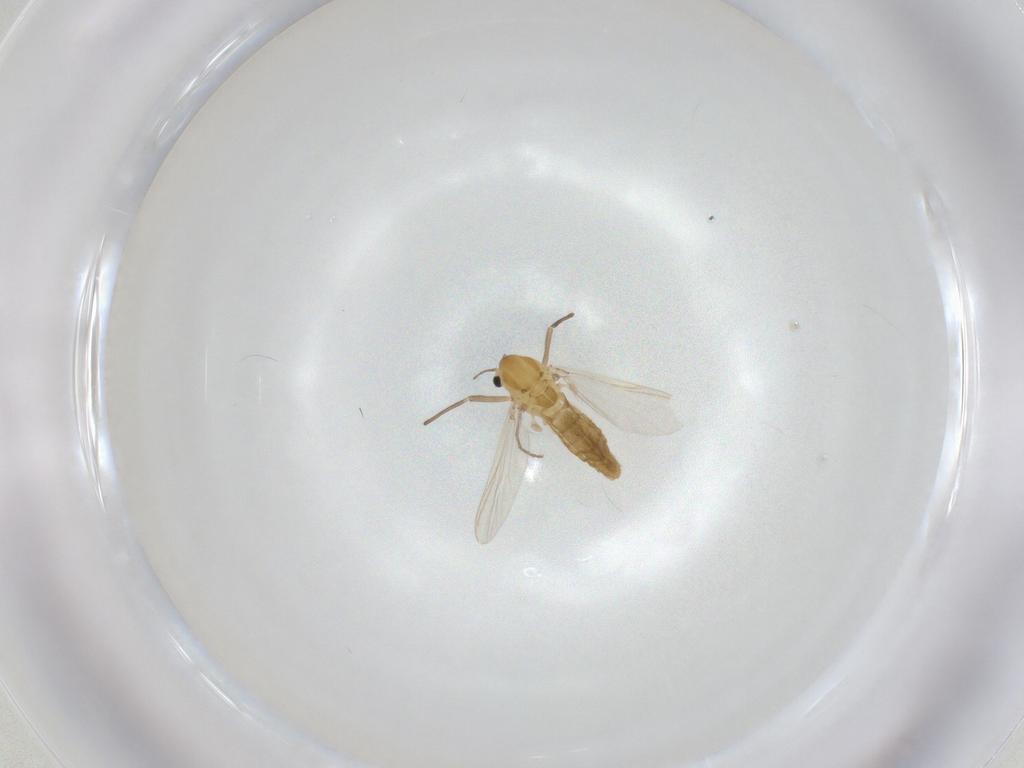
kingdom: Animalia
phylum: Arthropoda
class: Insecta
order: Diptera
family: Chironomidae
